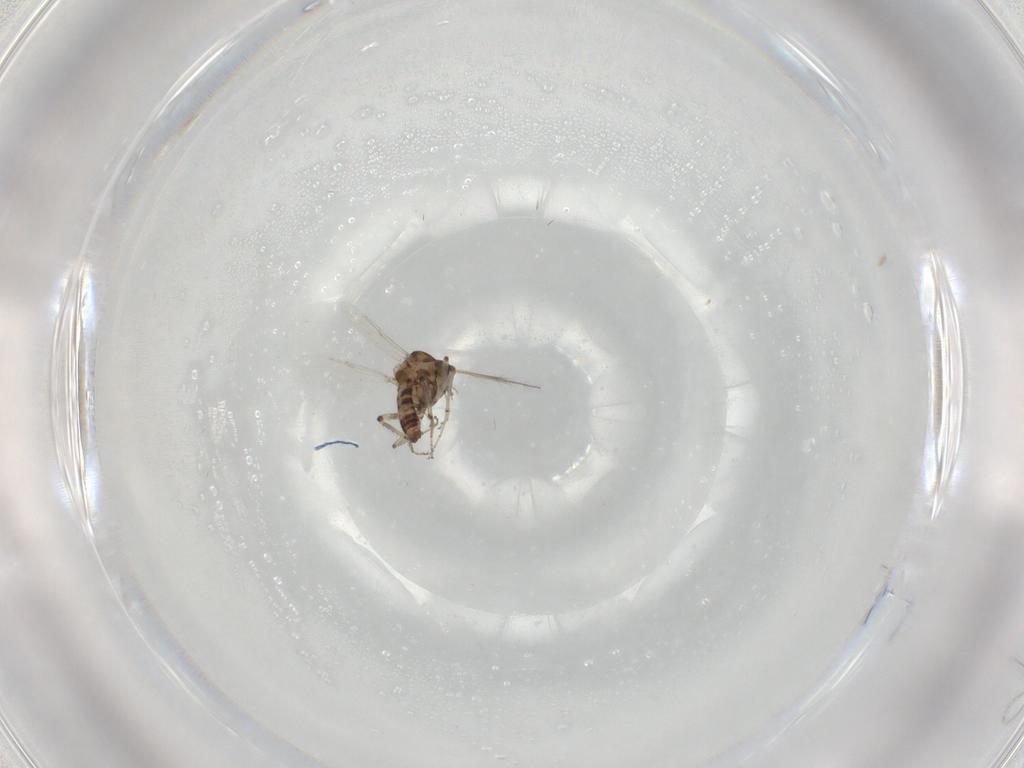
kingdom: Animalia
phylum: Arthropoda
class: Insecta
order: Diptera
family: Ceratopogonidae
